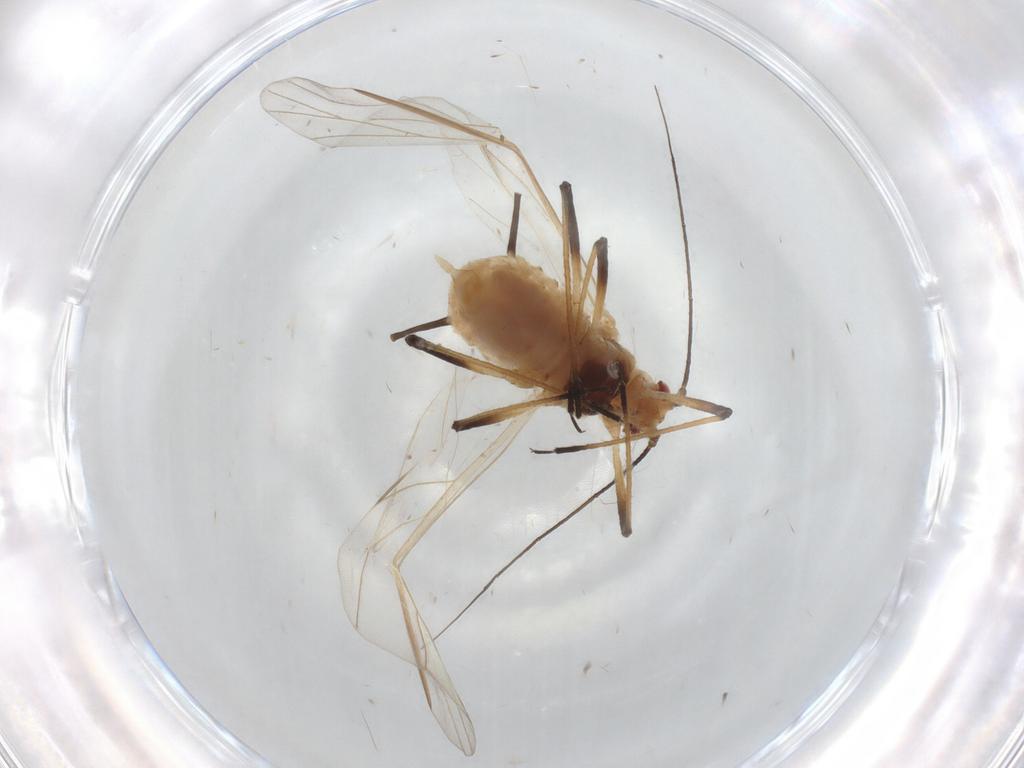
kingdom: Animalia
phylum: Arthropoda
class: Insecta
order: Hemiptera
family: Aphididae
